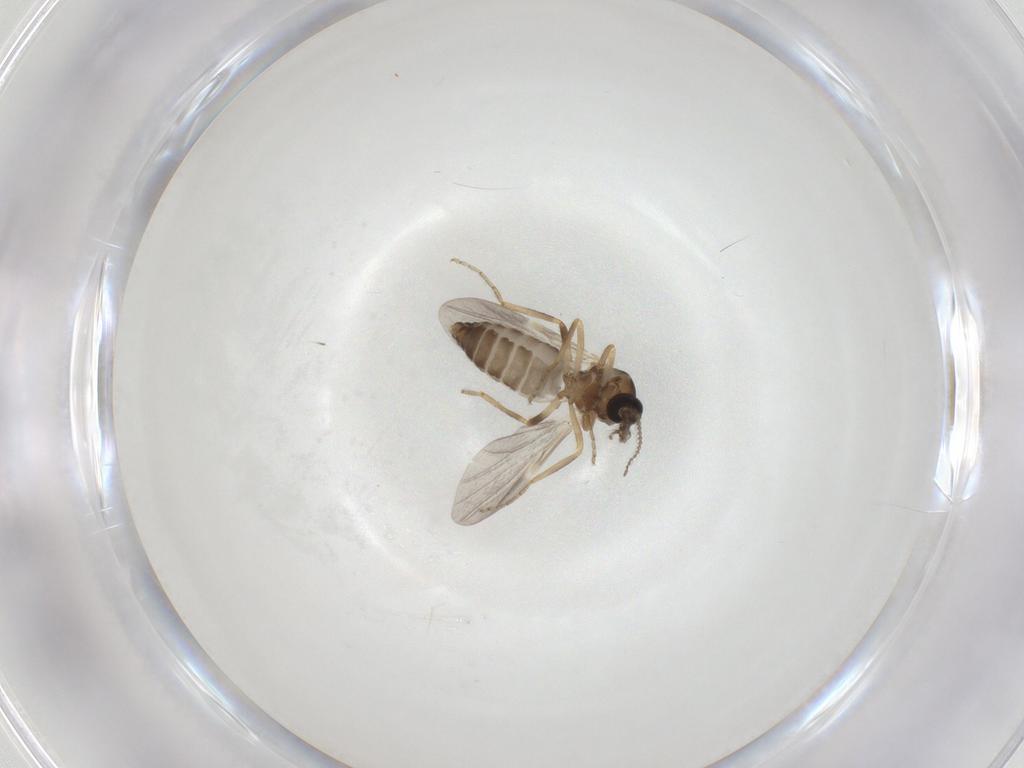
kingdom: Animalia
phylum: Arthropoda
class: Insecta
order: Diptera
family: Ceratopogonidae
